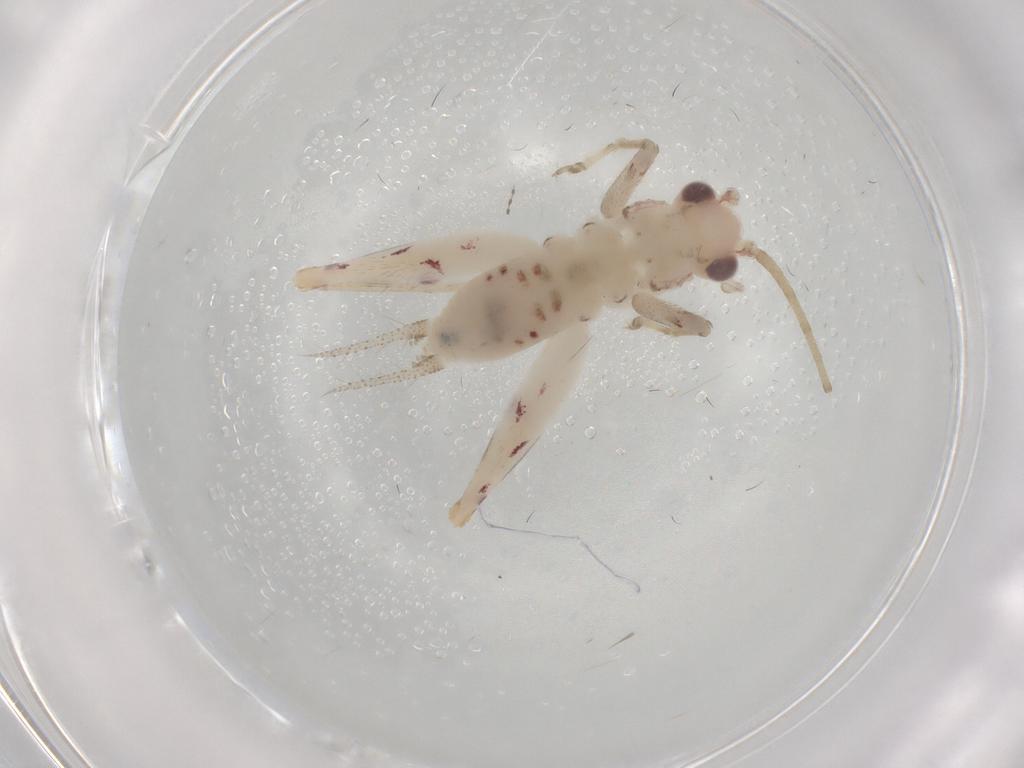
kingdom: Animalia
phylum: Arthropoda
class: Insecta
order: Orthoptera
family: Trigonidiidae
